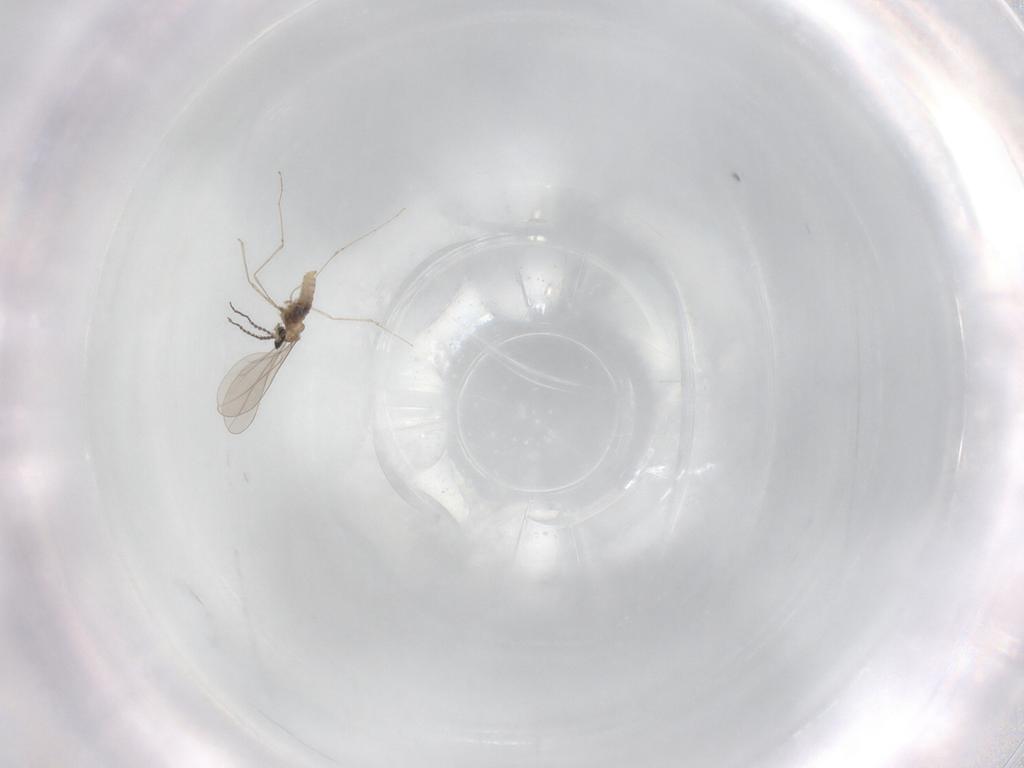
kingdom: Animalia
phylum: Arthropoda
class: Insecta
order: Diptera
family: Cecidomyiidae
